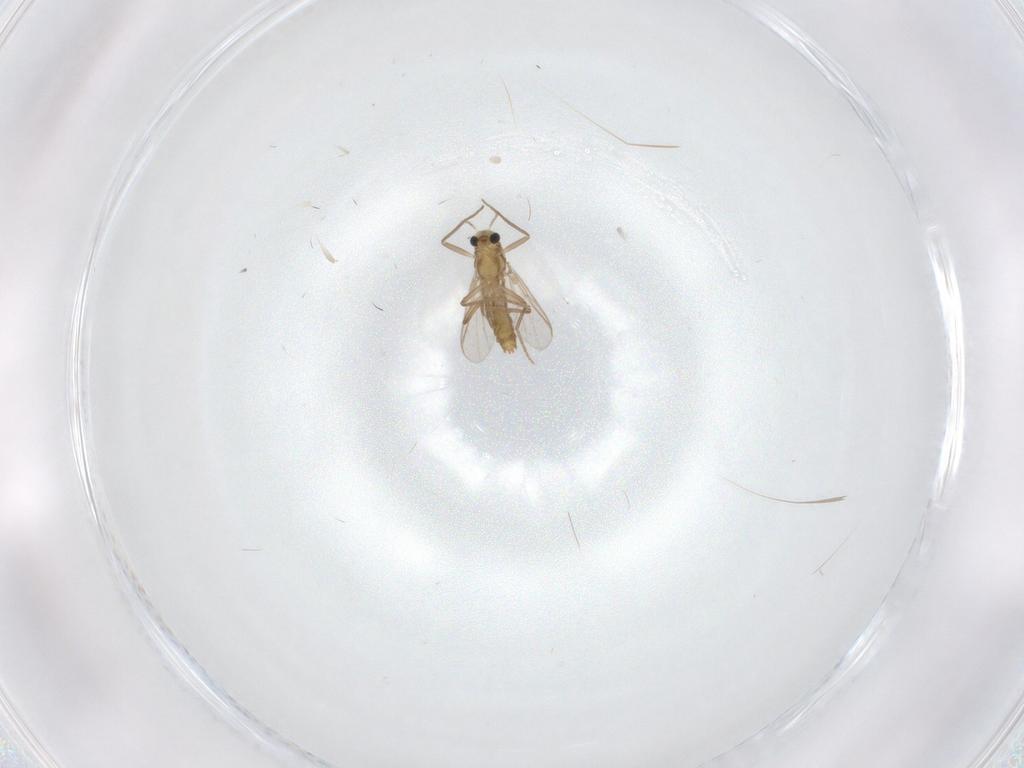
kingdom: Animalia
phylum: Arthropoda
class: Insecta
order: Diptera
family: Chironomidae
